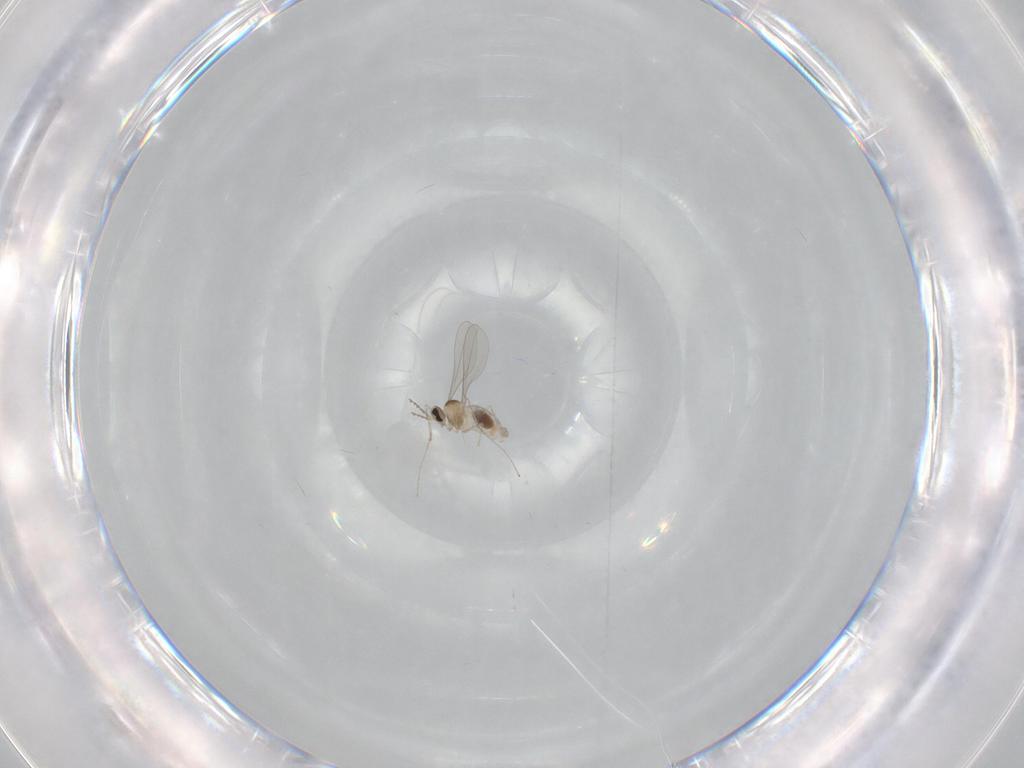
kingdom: Animalia
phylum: Arthropoda
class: Insecta
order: Diptera
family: Cecidomyiidae
